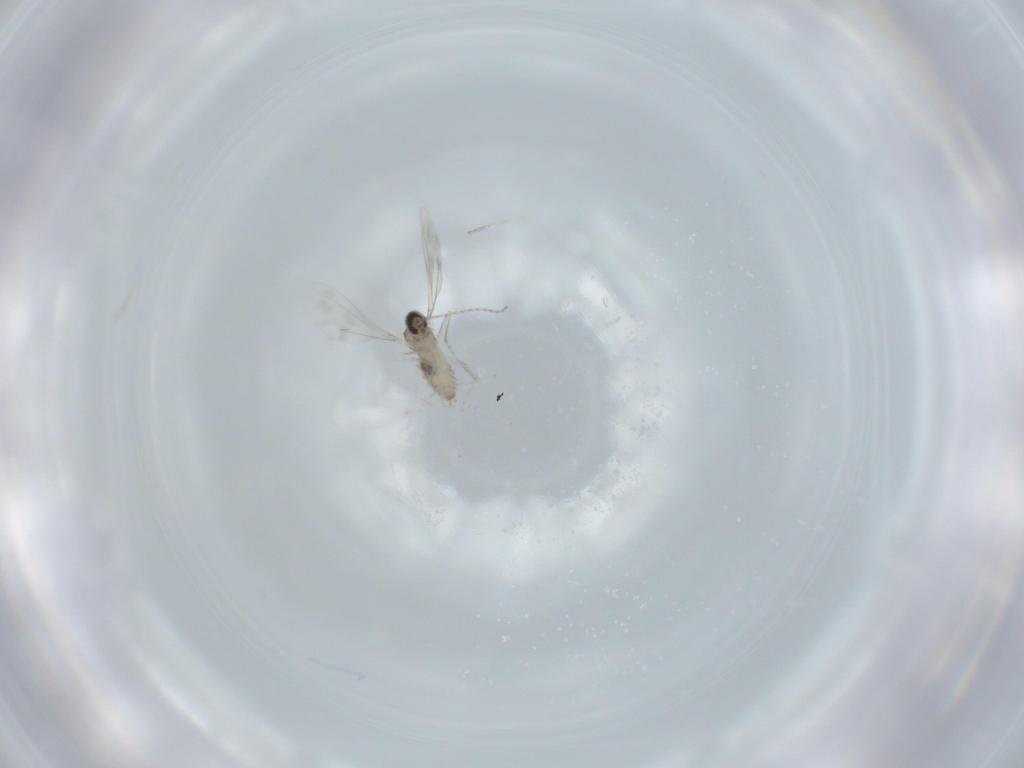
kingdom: Animalia
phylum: Arthropoda
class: Insecta
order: Diptera
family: Cecidomyiidae
